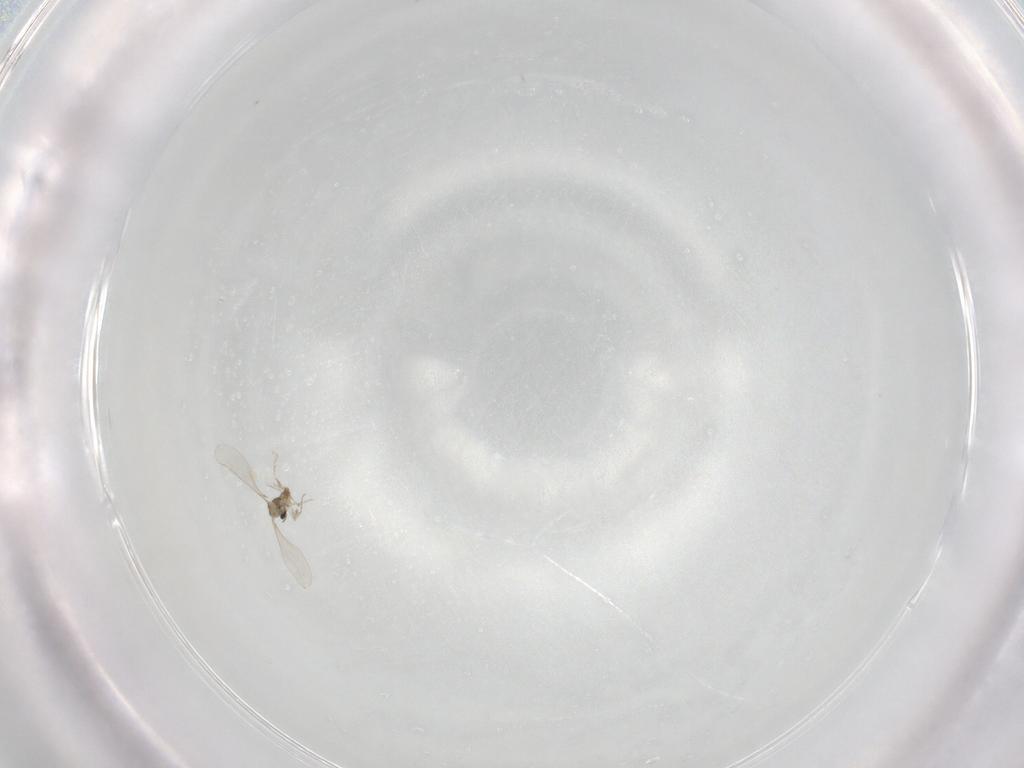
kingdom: Animalia
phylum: Arthropoda
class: Insecta
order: Diptera
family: Cecidomyiidae
